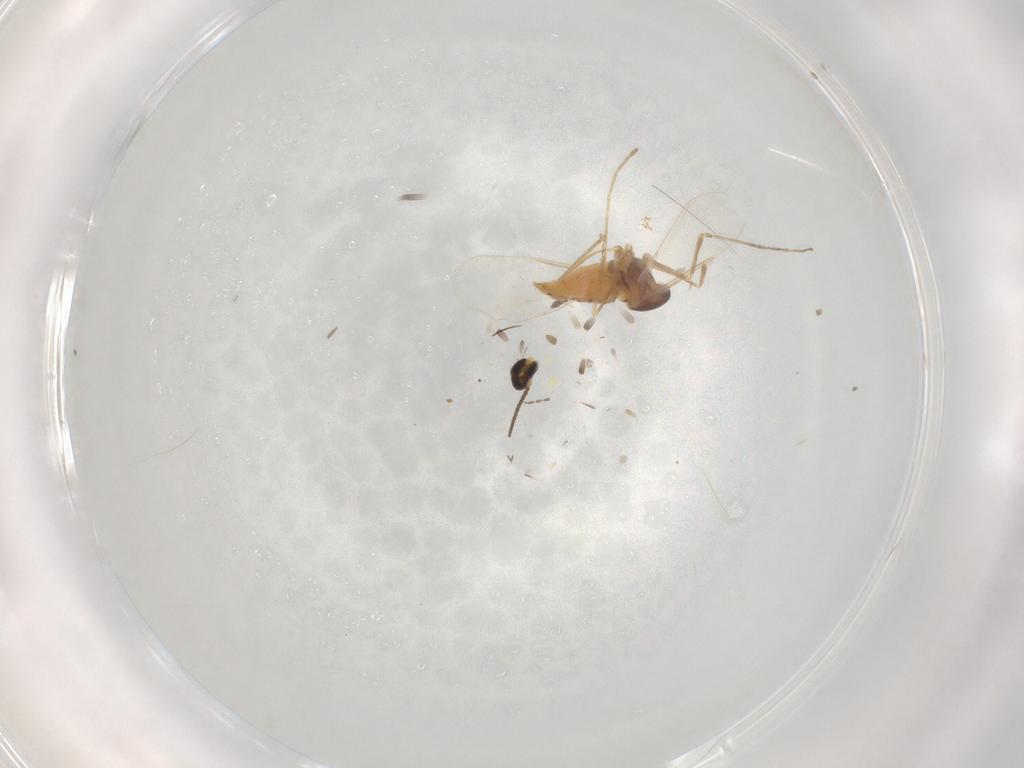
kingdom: Animalia
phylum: Arthropoda
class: Insecta
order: Diptera
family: Cecidomyiidae
